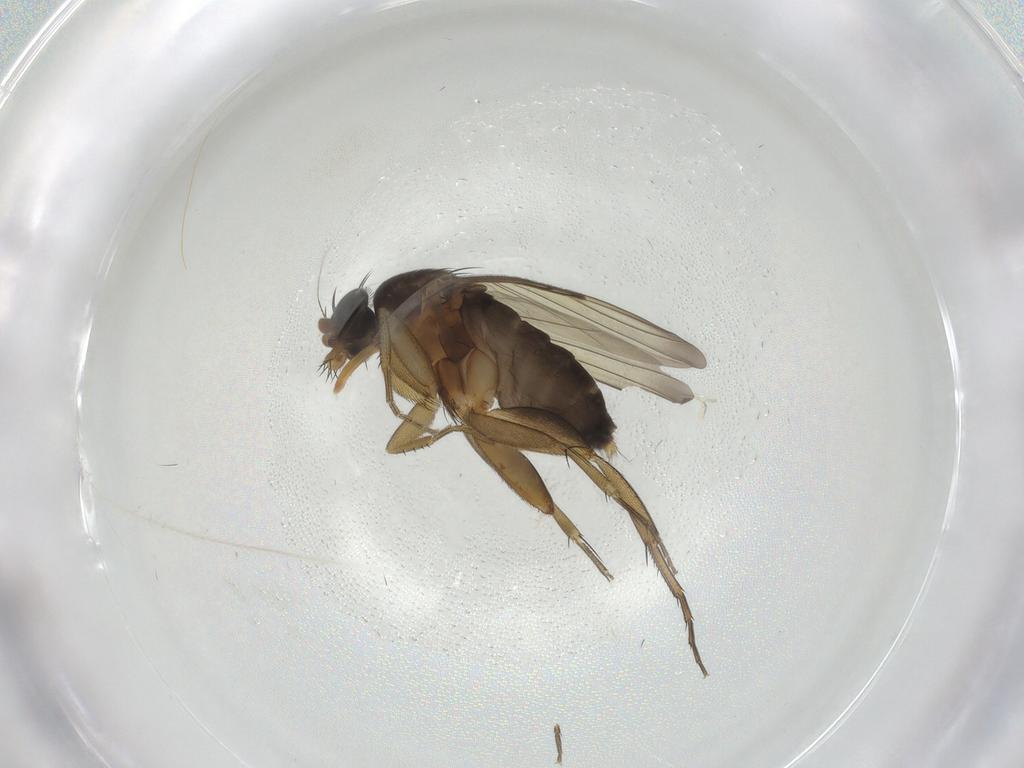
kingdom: Animalia
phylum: Arthropoda
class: Insecta
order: Diptera
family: Phoridae
